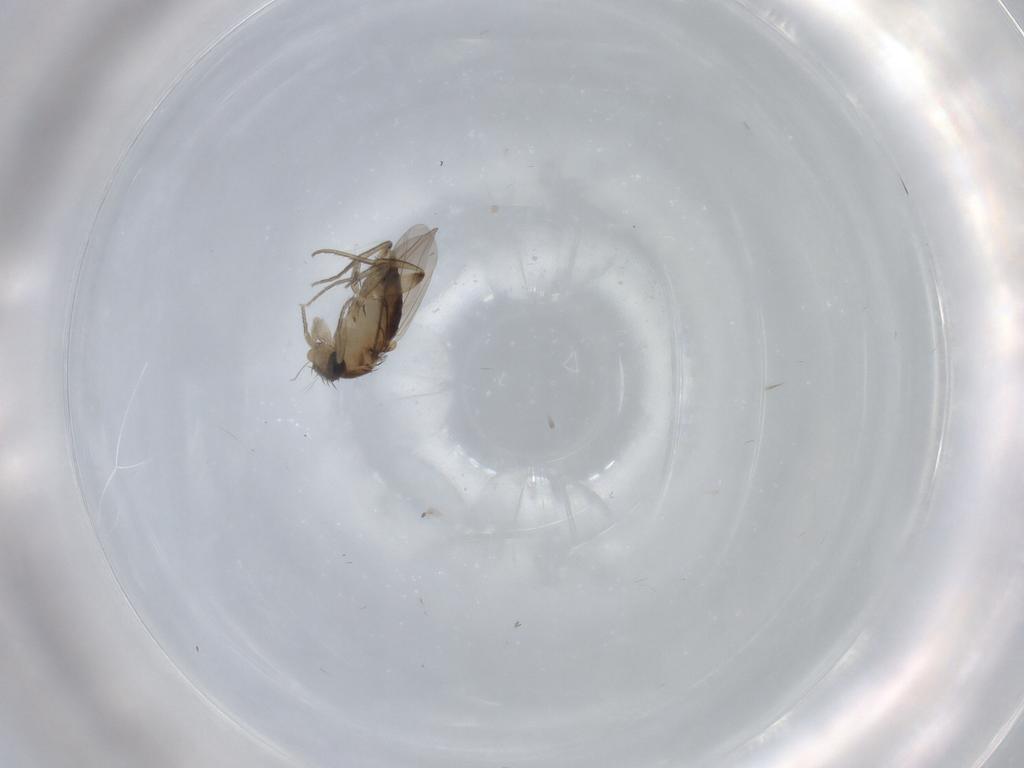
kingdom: Animalia
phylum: Arthropoda
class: Insecta
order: Diptera
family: Phoridae
